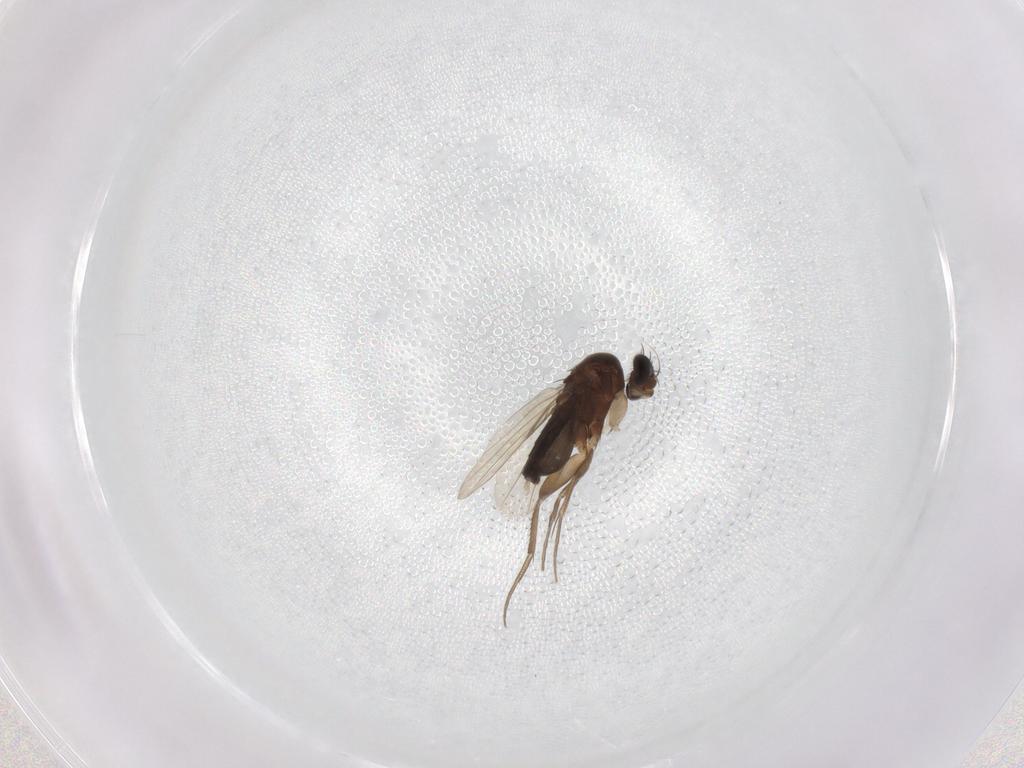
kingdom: Animalia
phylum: Arthropoda
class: Insecta
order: Diptera
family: Phoridae
